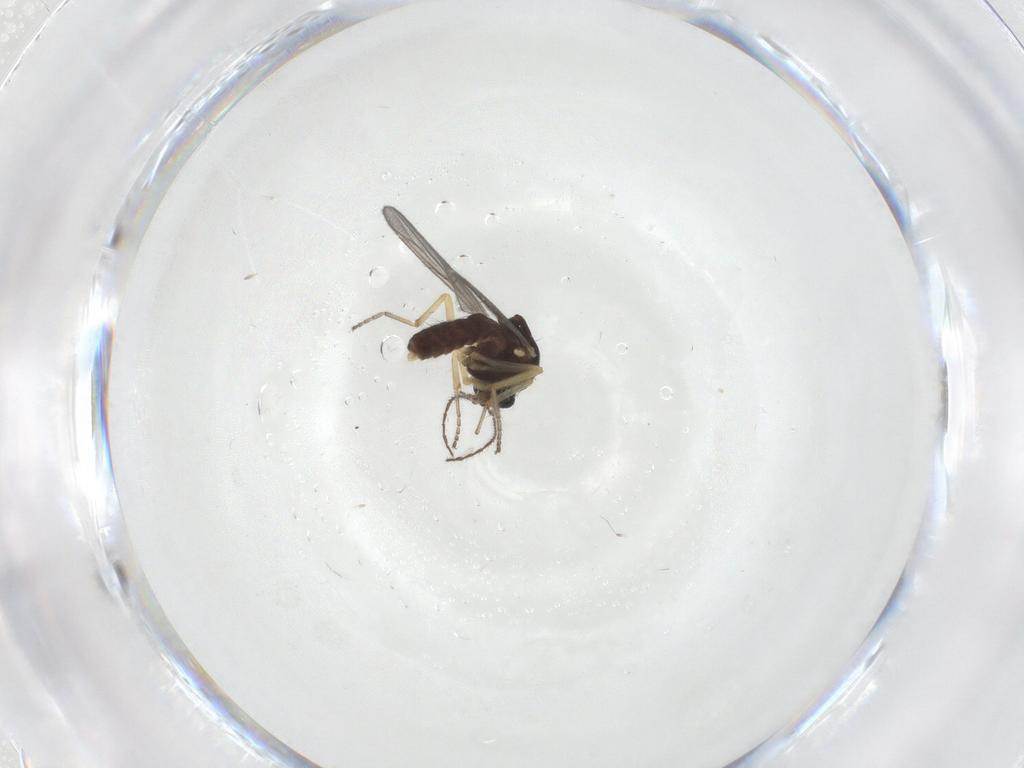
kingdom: Animalia
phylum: Arthropoda
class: Insecta
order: Diptera
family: Ceratopogonidae
